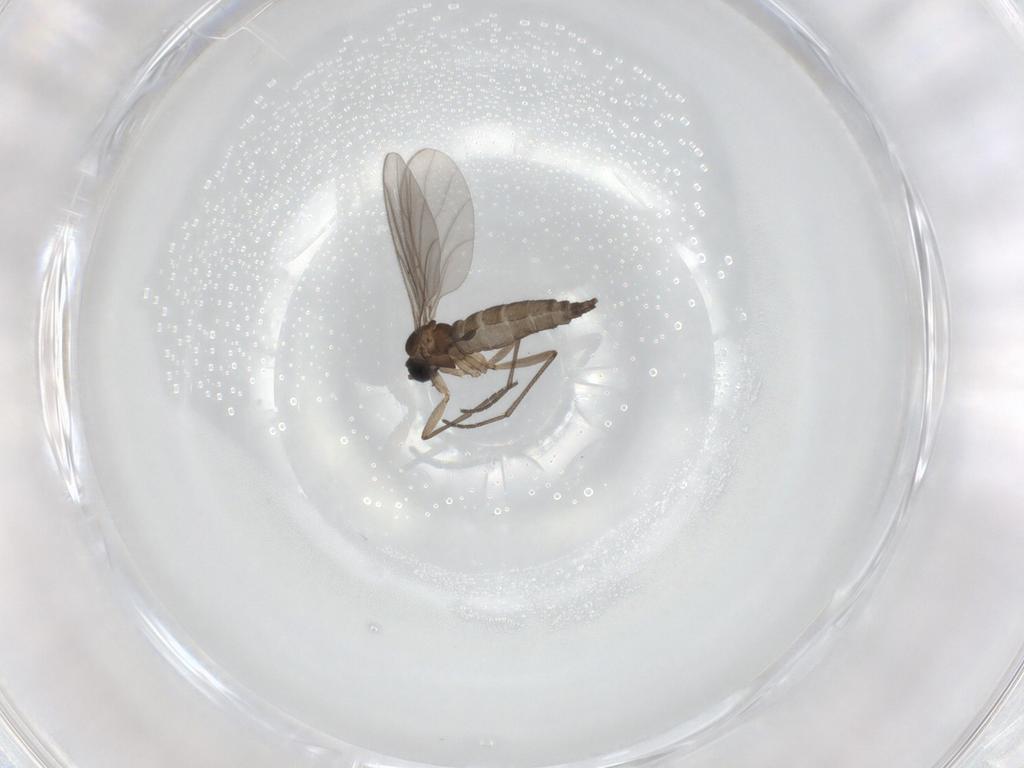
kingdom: Animalia
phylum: Arthropoda
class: Insecta
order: Diptera
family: Sciaridae
